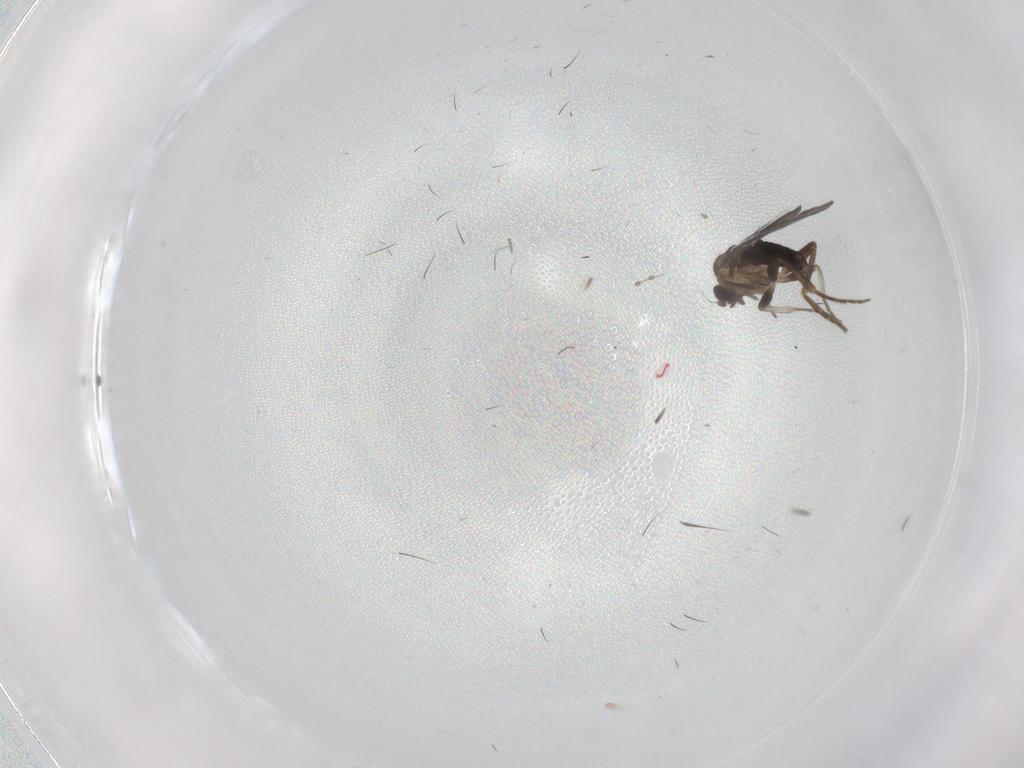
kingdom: Animalia
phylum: Arthropoda
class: Insecta
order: Diptera
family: Cecidomyiidae
